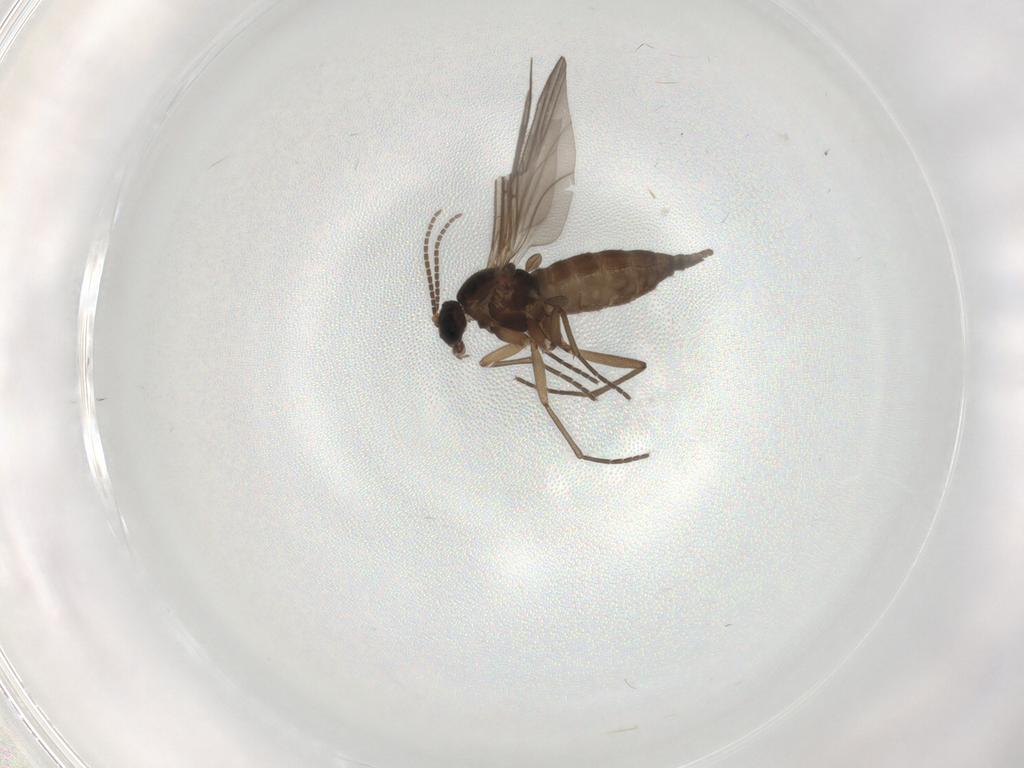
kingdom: Animalia
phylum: Arthropoda
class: Insecta
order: Diptera
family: Sciaridae
